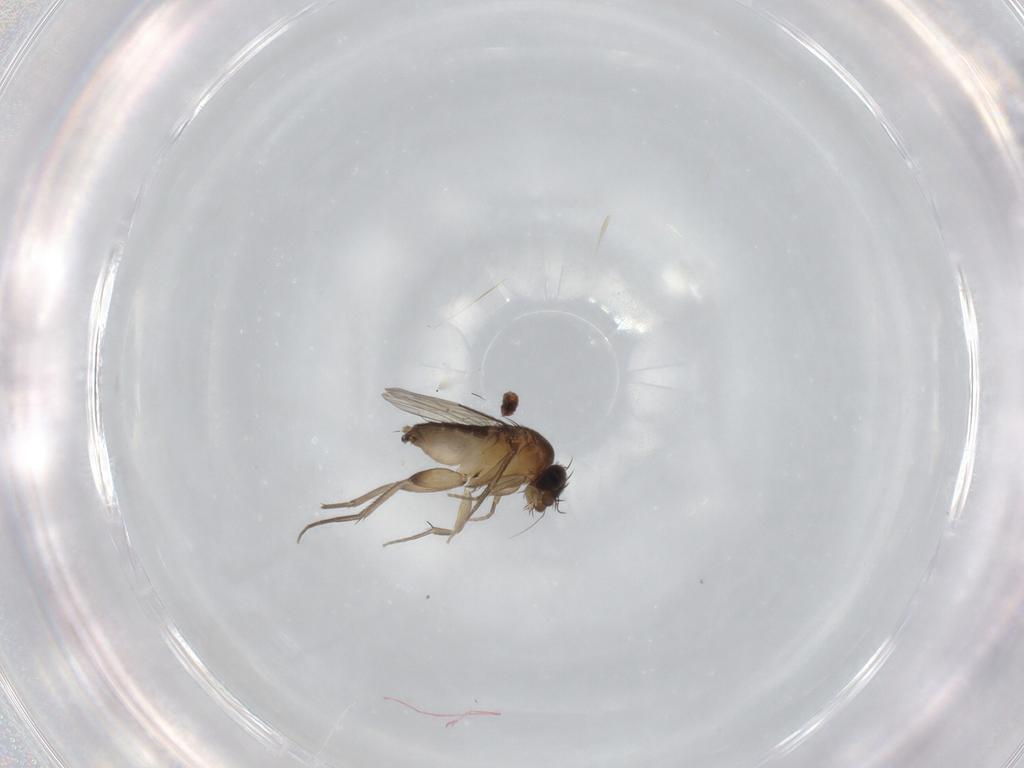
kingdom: Animalia
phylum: Arthropoda
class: Insecta
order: Diptera
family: Phoridae
